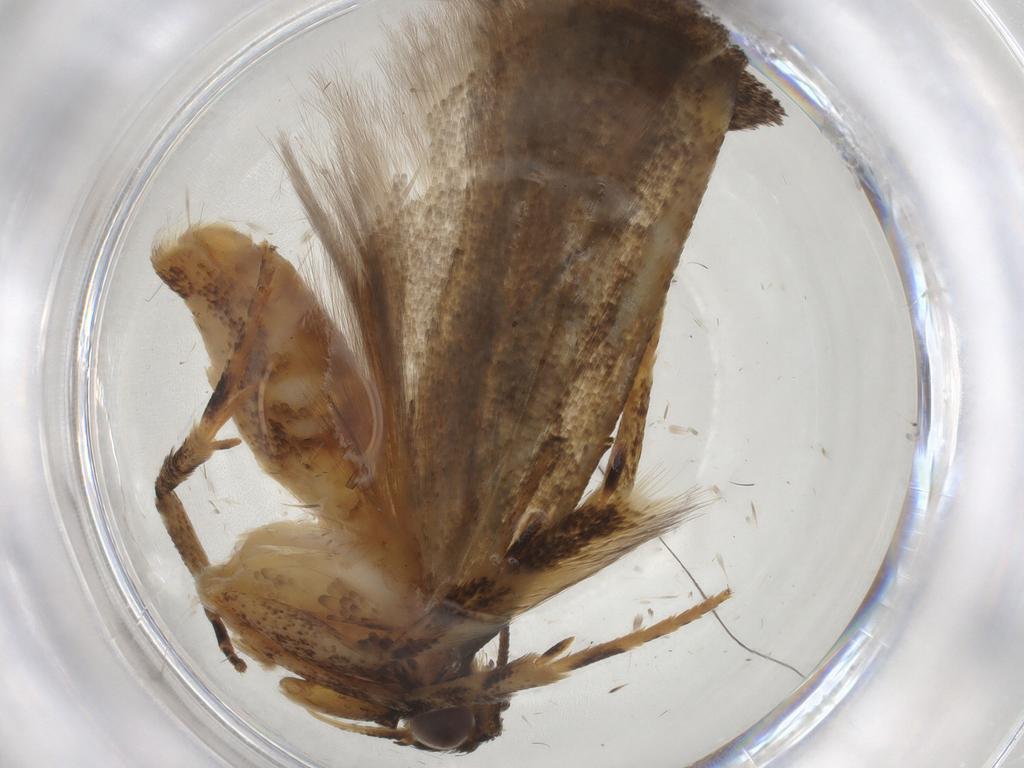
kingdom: Animalia
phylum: Arthropoda
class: Insecta
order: Lepidoptera
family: Gelechiidae
